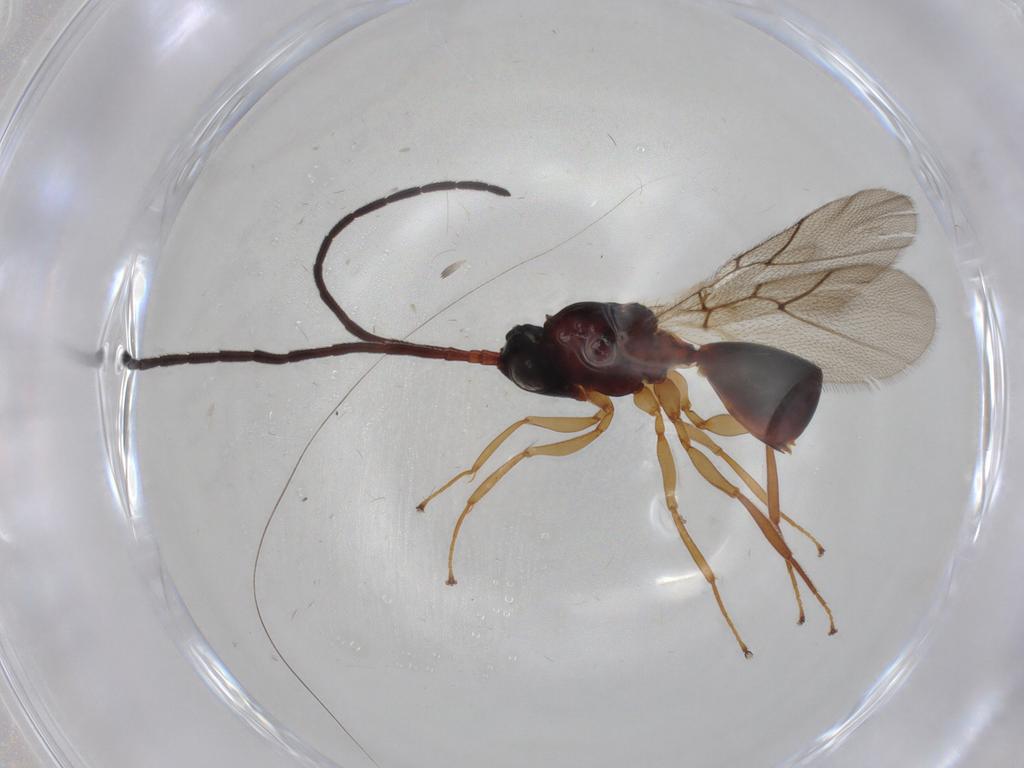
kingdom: Animalia
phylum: Arthropoda
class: Insecta
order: Hymenoptera
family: Figitidae
